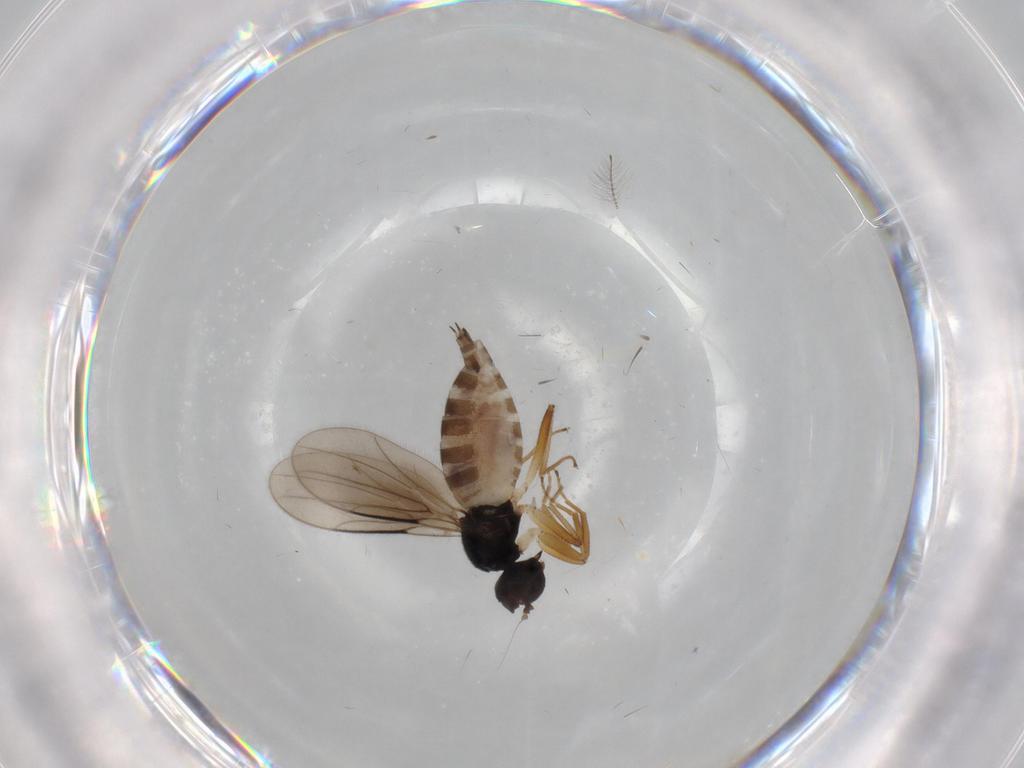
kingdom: Animalia
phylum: Arthropoda
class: Insecta
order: Diptera
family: Hybotidae
